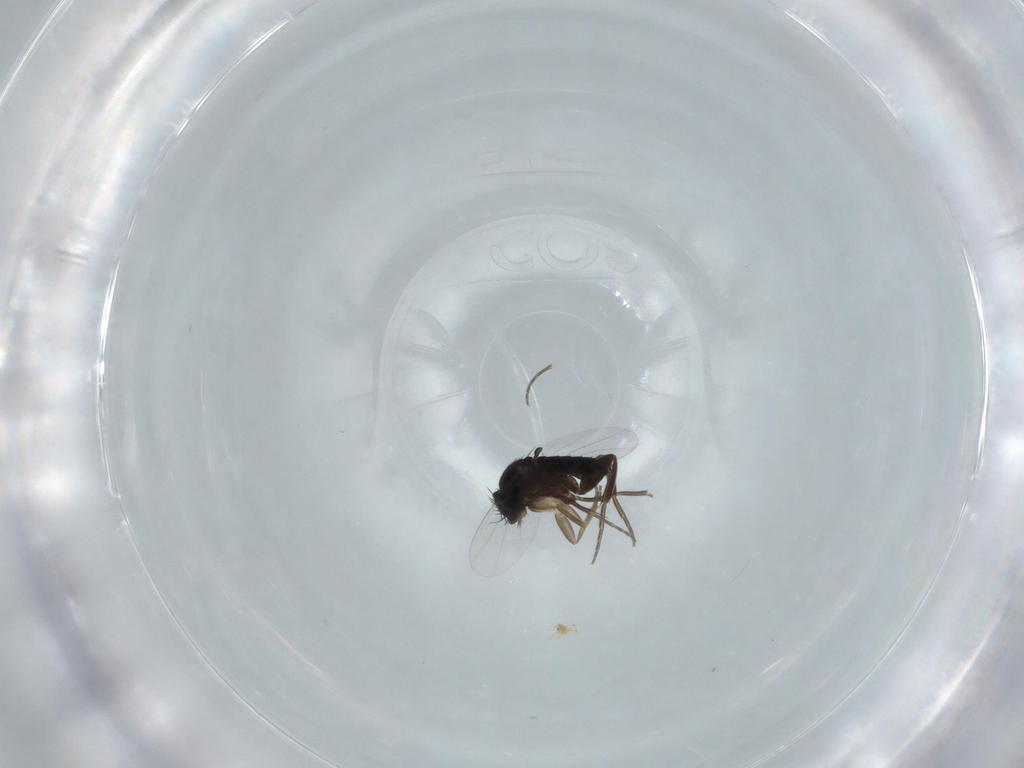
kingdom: Animalia
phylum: Arthropoda
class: Insecta
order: Diptera
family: Phoridae
